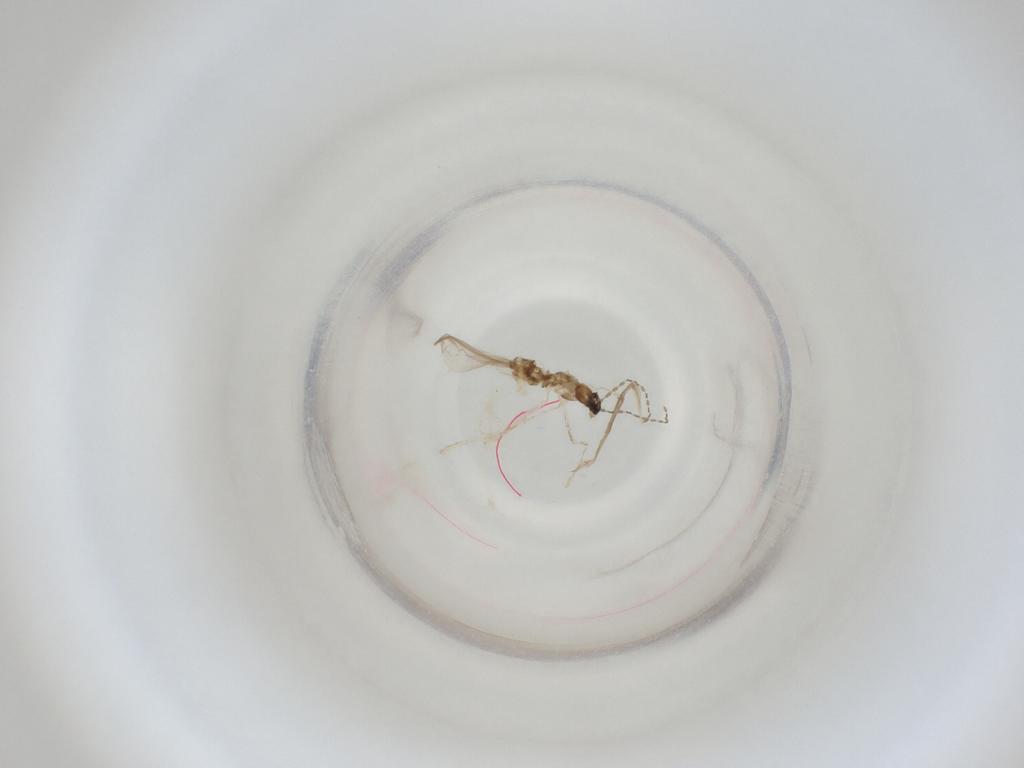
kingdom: Animalia
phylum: Arthropoda
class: Insecta
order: Diptera
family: Cecidomyiidae
